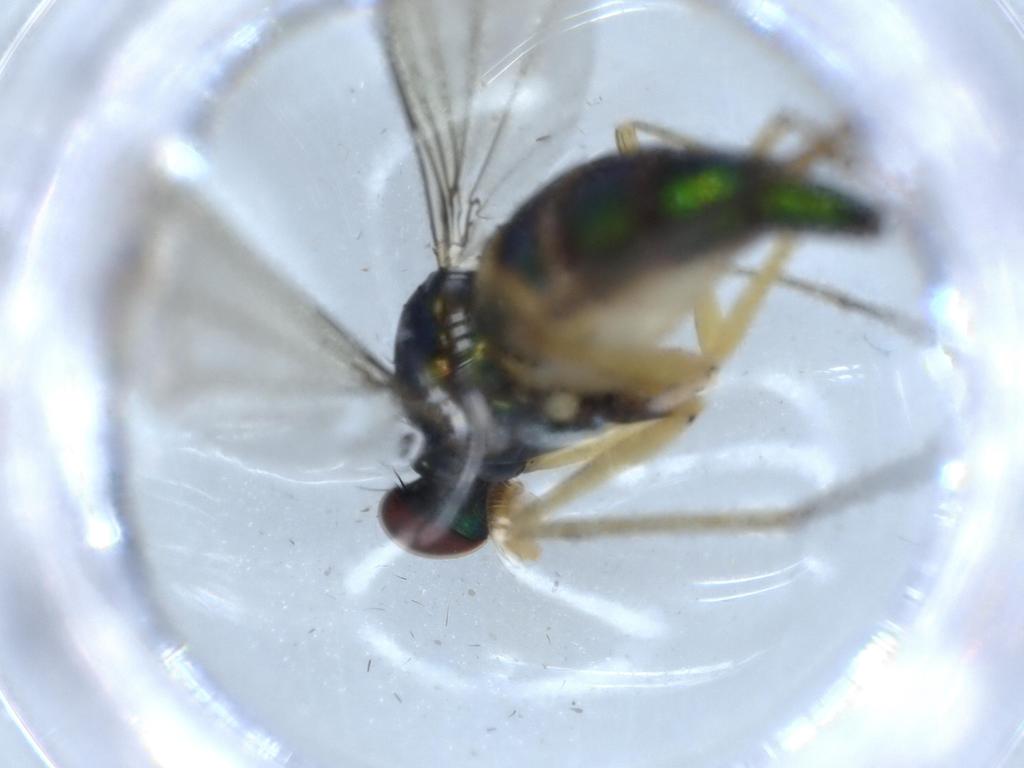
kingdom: Animalia
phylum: Arthropoda
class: Insecta
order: Diptera
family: Dolichopodidae
